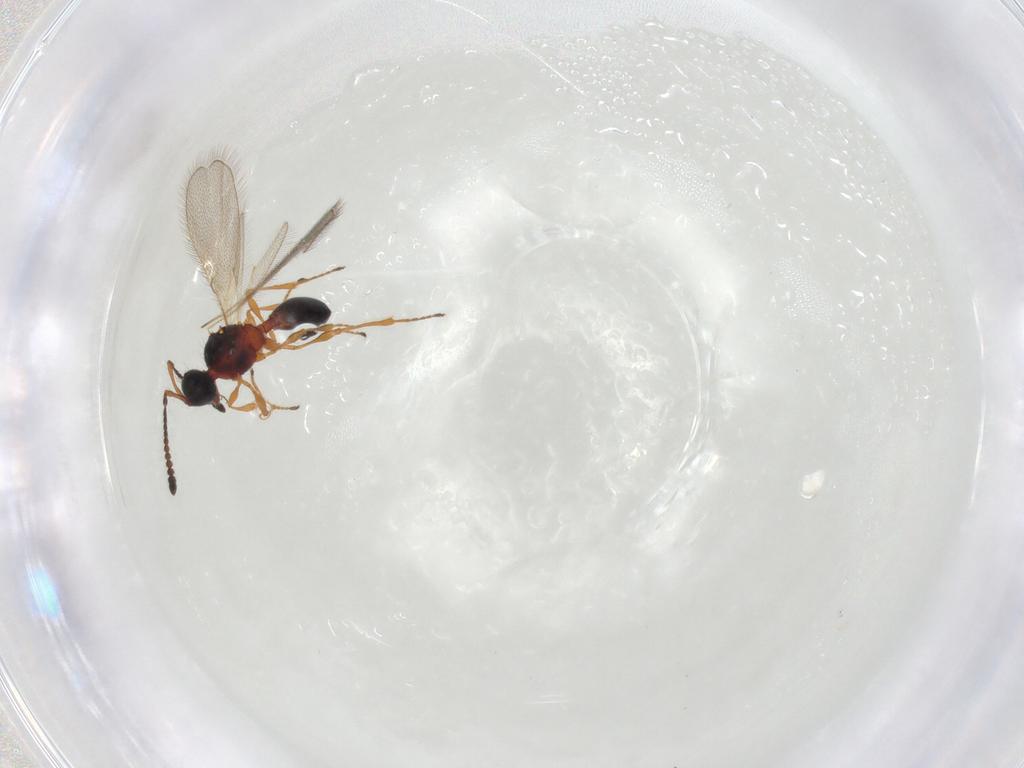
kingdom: Animalia
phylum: Arthropoda
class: Insecta
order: Hymenoptera
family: Diapriidae
